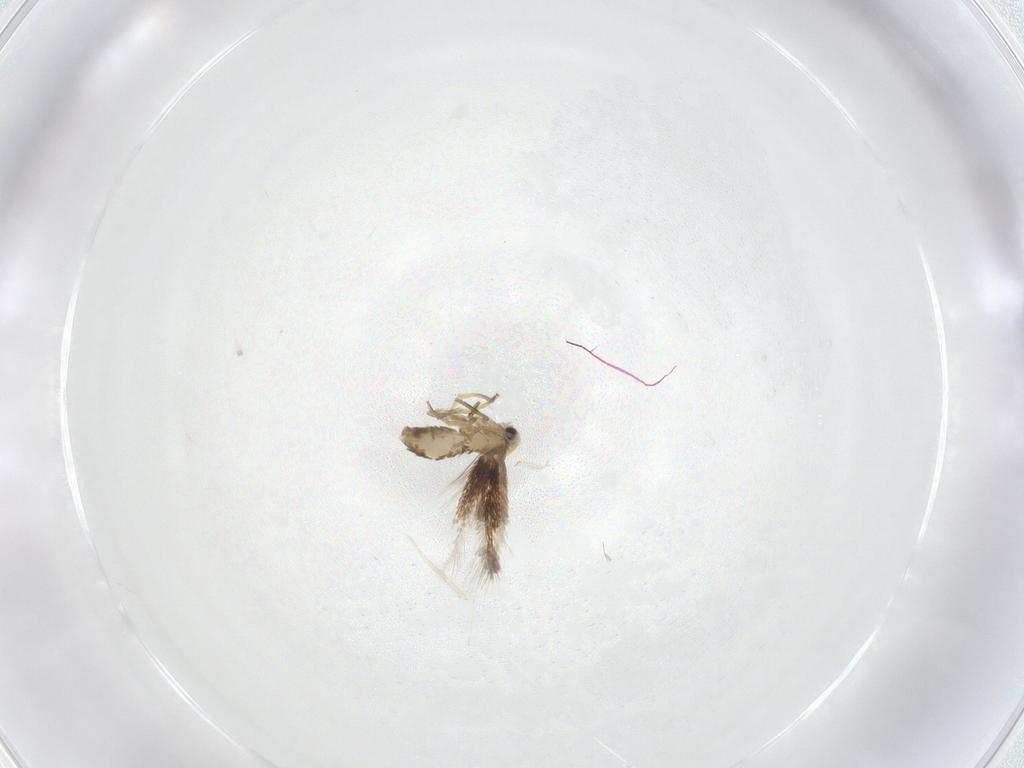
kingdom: Animalia
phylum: Arthropoda
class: Insecta
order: Lepidoptera
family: Nepticulidae
